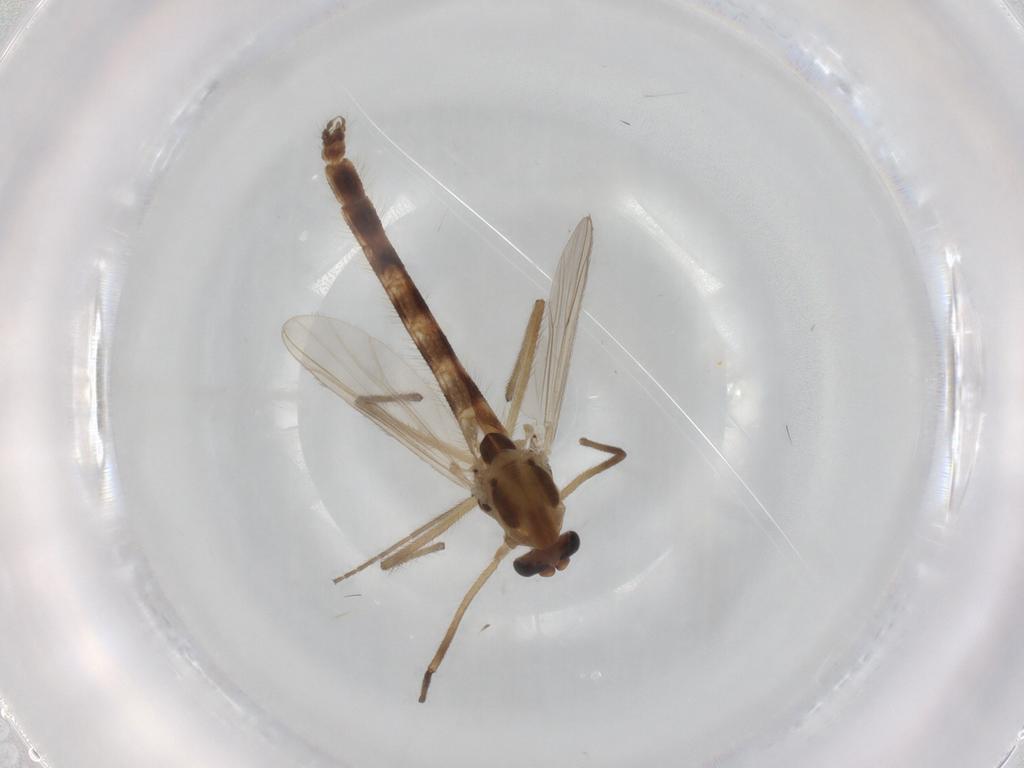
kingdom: Animalia
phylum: Arthropoda
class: Insecta
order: Diptera
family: Chironomidae
